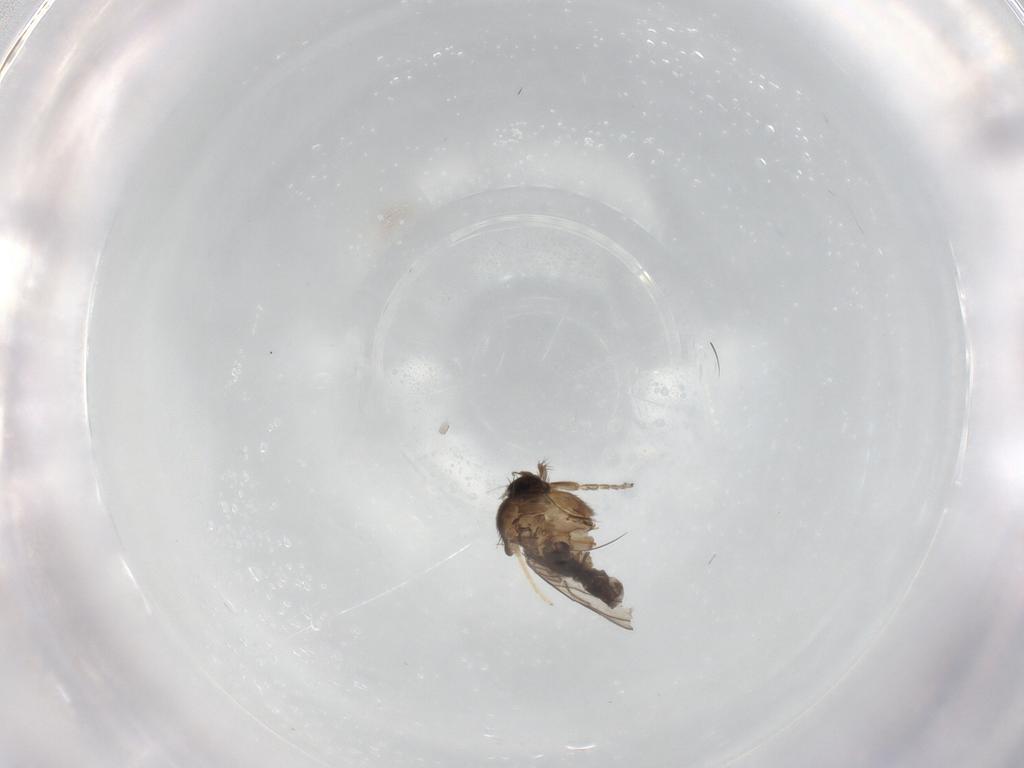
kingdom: Animalia
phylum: Arthropoda
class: Insecta
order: Diptera
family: Phoridae
